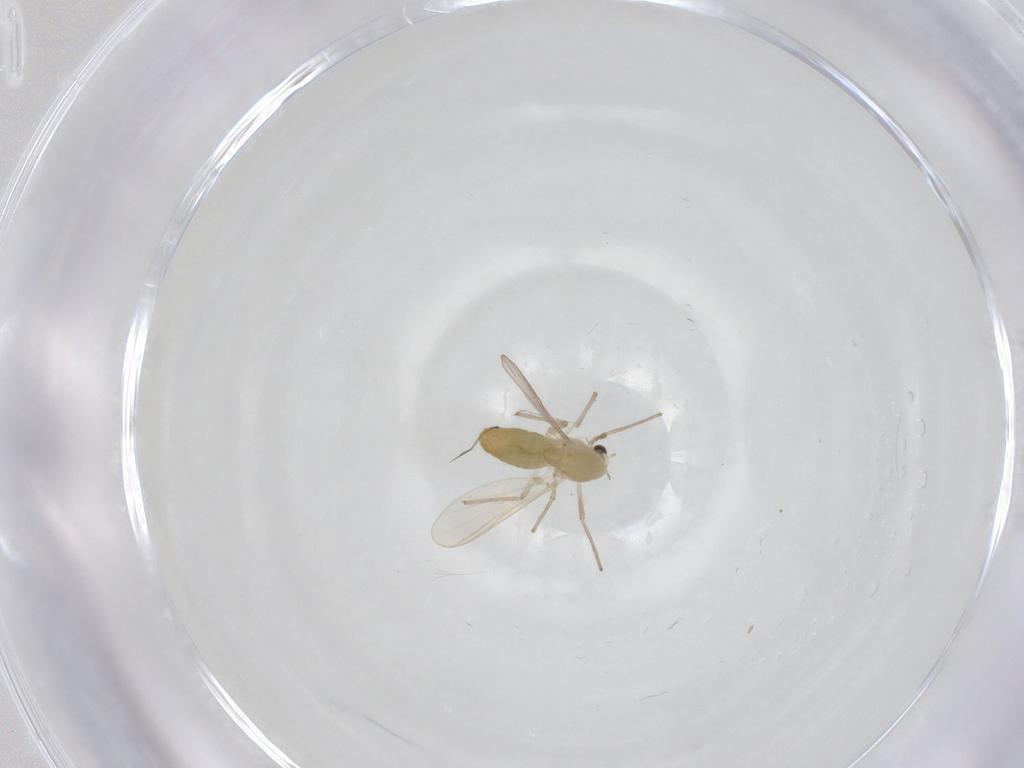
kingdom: Animalia
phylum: Arthropoda
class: Insecta
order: Diptera
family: Chironomidae
